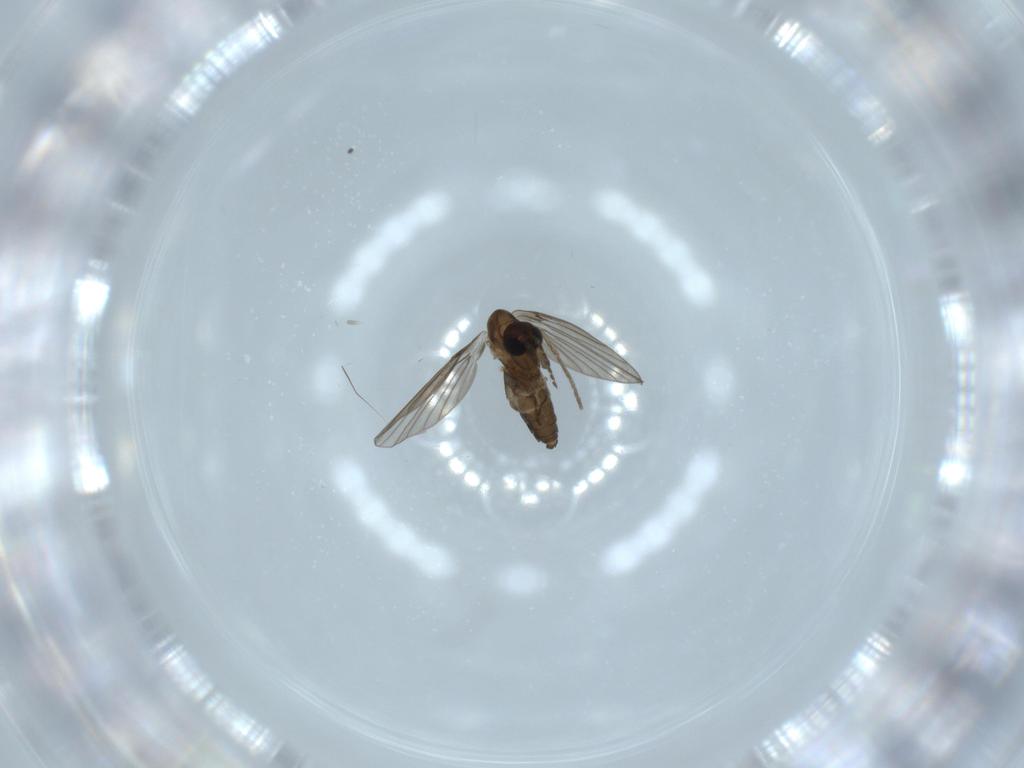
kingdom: Animalia
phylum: Arthropoda
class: Insecta
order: Diptera
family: Psychodidae
